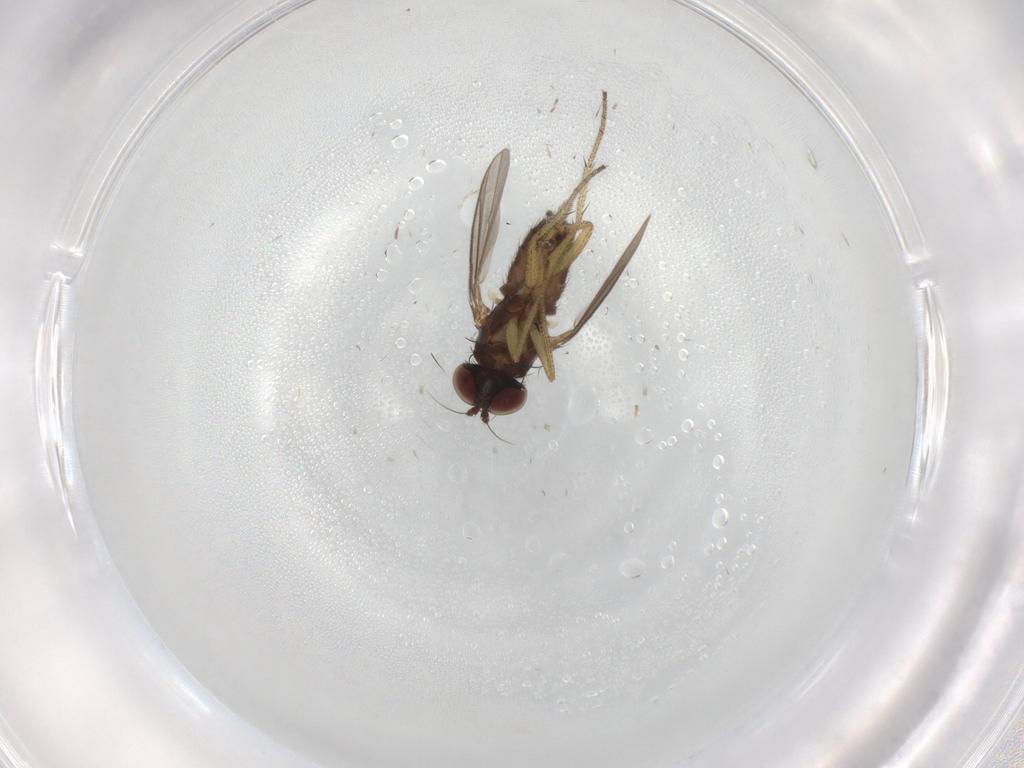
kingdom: Animalia
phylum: Arthropoda
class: Insecta
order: Diptera
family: Dolichopodidae
